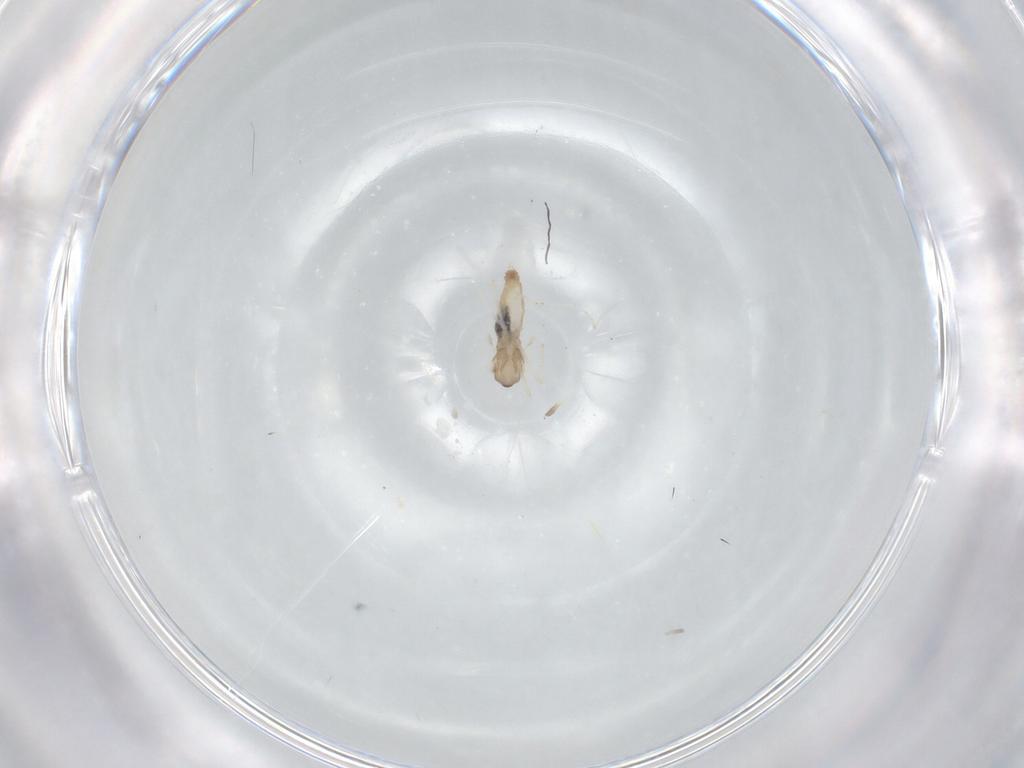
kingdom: Animalia
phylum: Arthropoda
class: Insecta
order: Diptera
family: Cecidomyiidae
